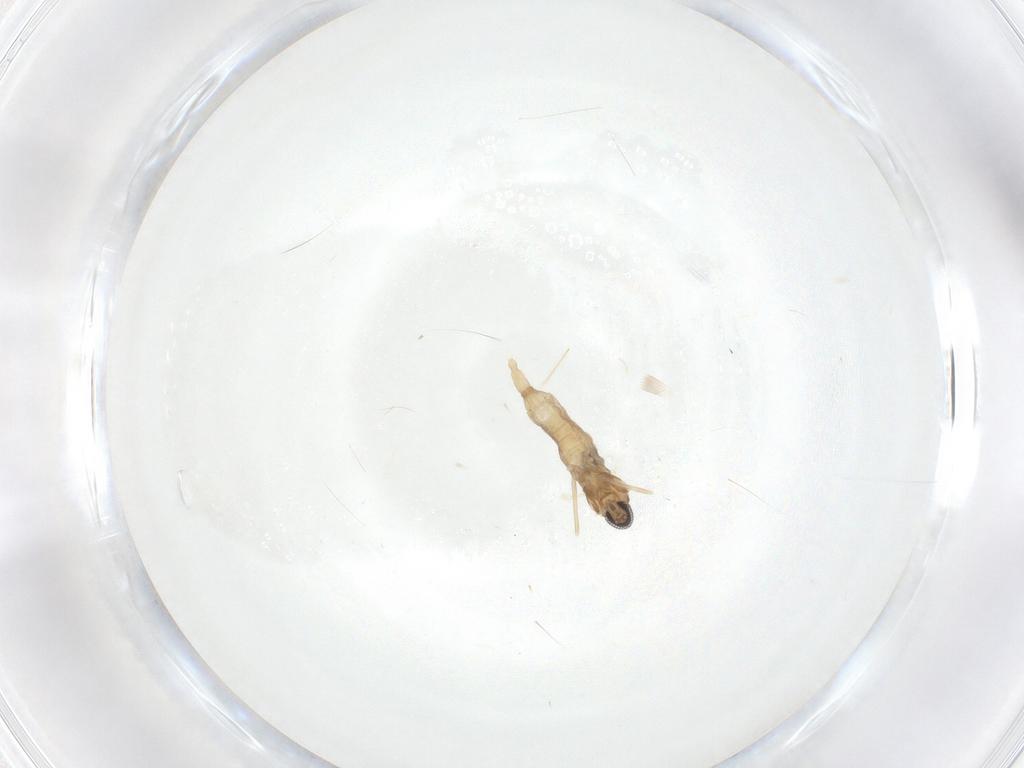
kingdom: Animalia
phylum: Arthropoda
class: Insecta
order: Diptera
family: Cecidomyiidae
